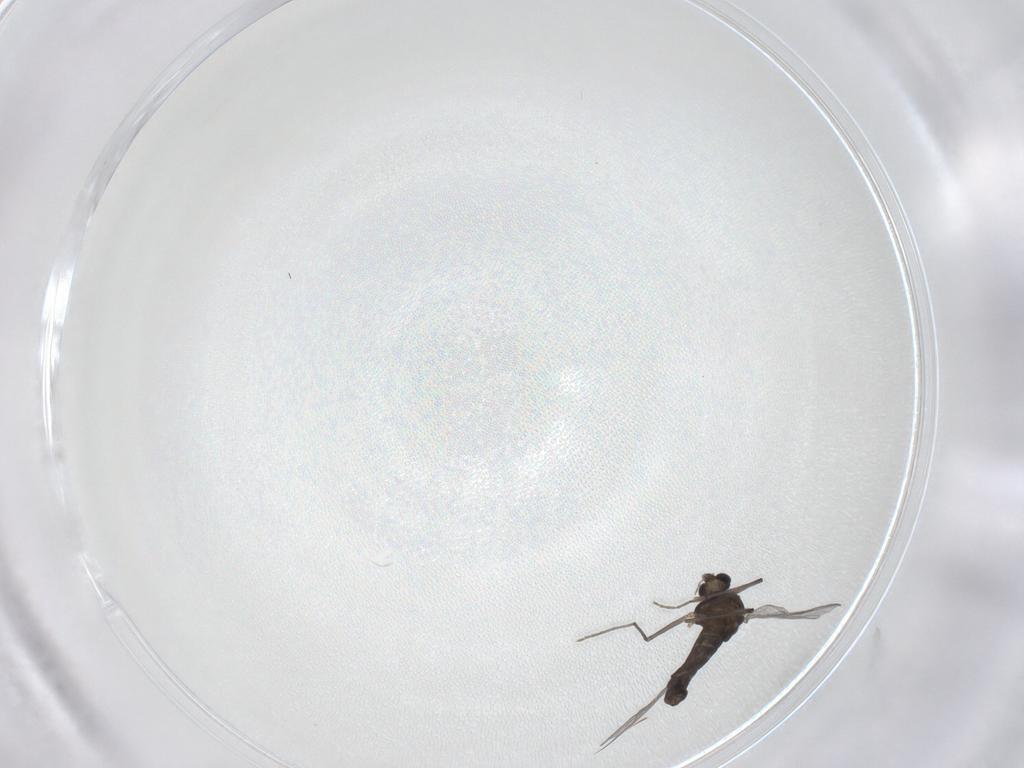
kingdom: Animalia
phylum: Arthropoda
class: Insecta
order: Diptera
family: Chironomidae
